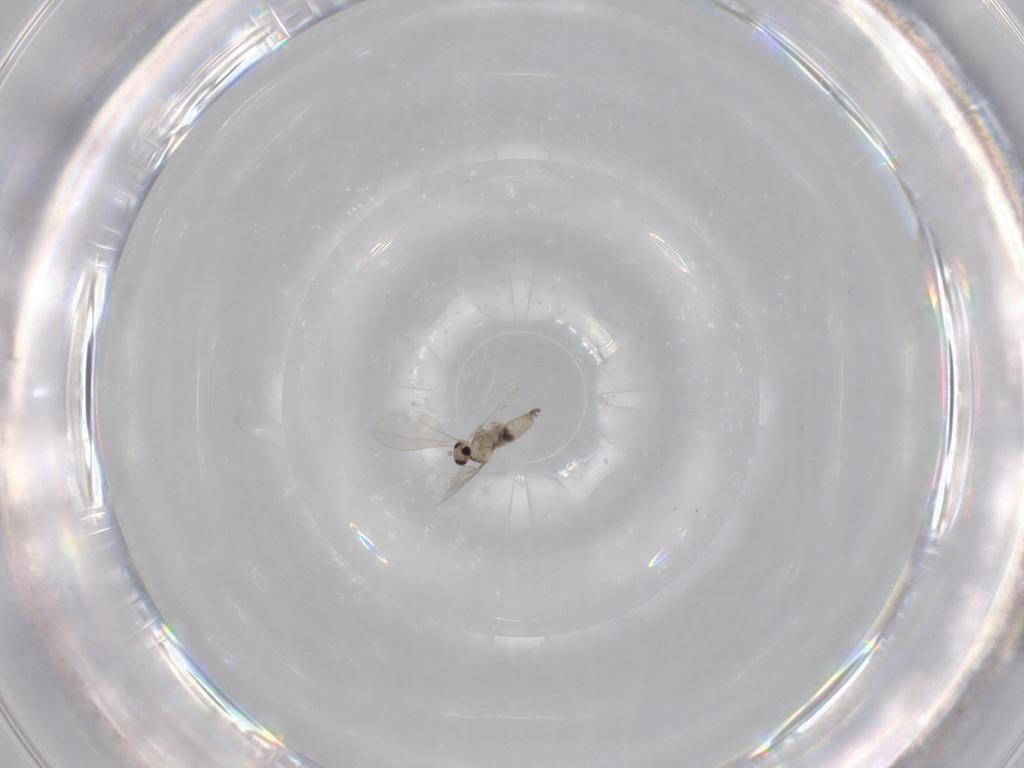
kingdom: Animalia
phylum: Arthropoda
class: Insecta
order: Diptera
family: Cecidomyiidae
